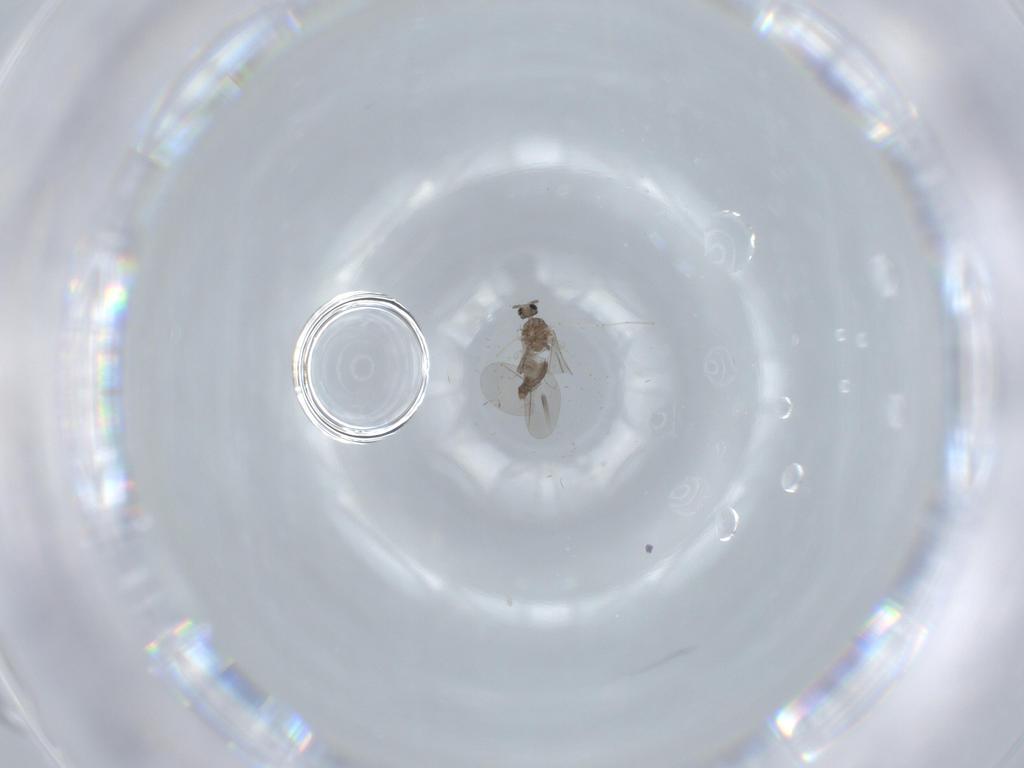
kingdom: Animalia
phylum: Arthropoda
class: Insecta
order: Diptera
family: Cecidomyiidae
